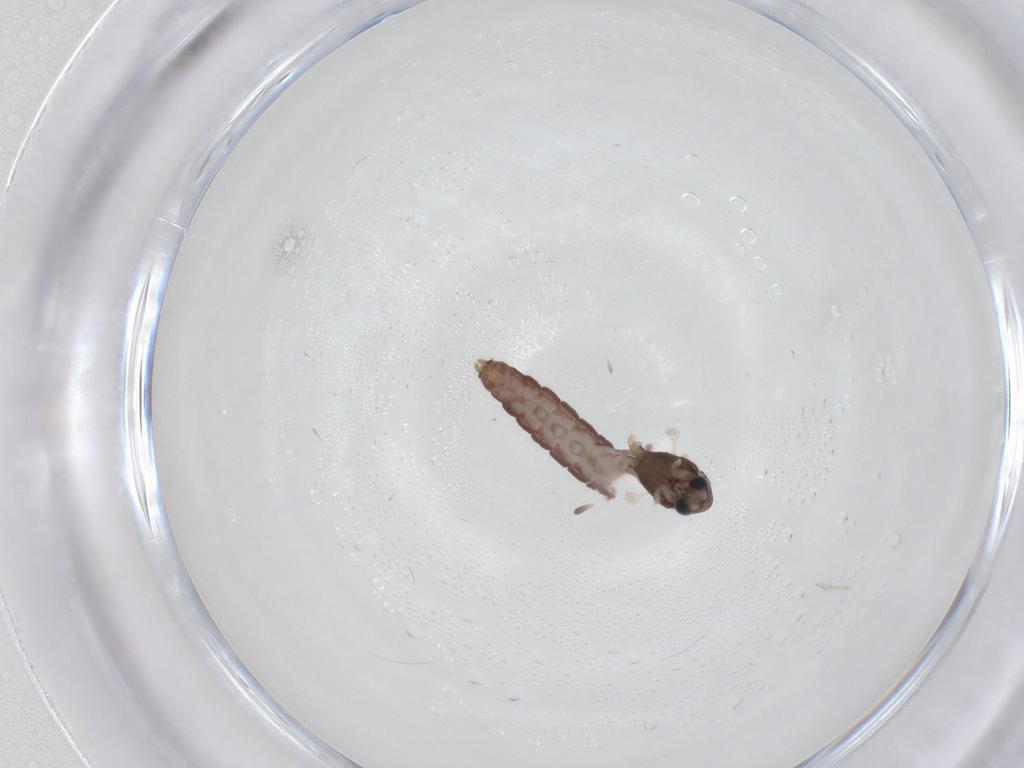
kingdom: Animalia
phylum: Arthropoda
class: Insecta
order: Diptera
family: Chironomidae
